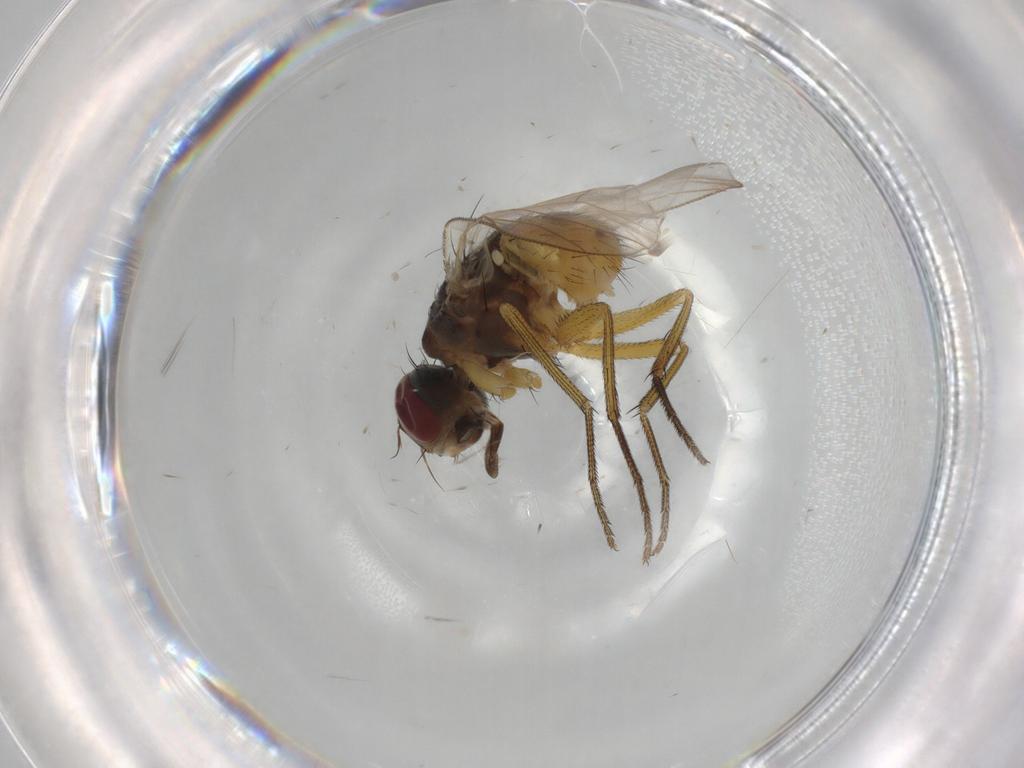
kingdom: Animalia
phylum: Arthropoda
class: Insecta
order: Diptera
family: Muscidae
